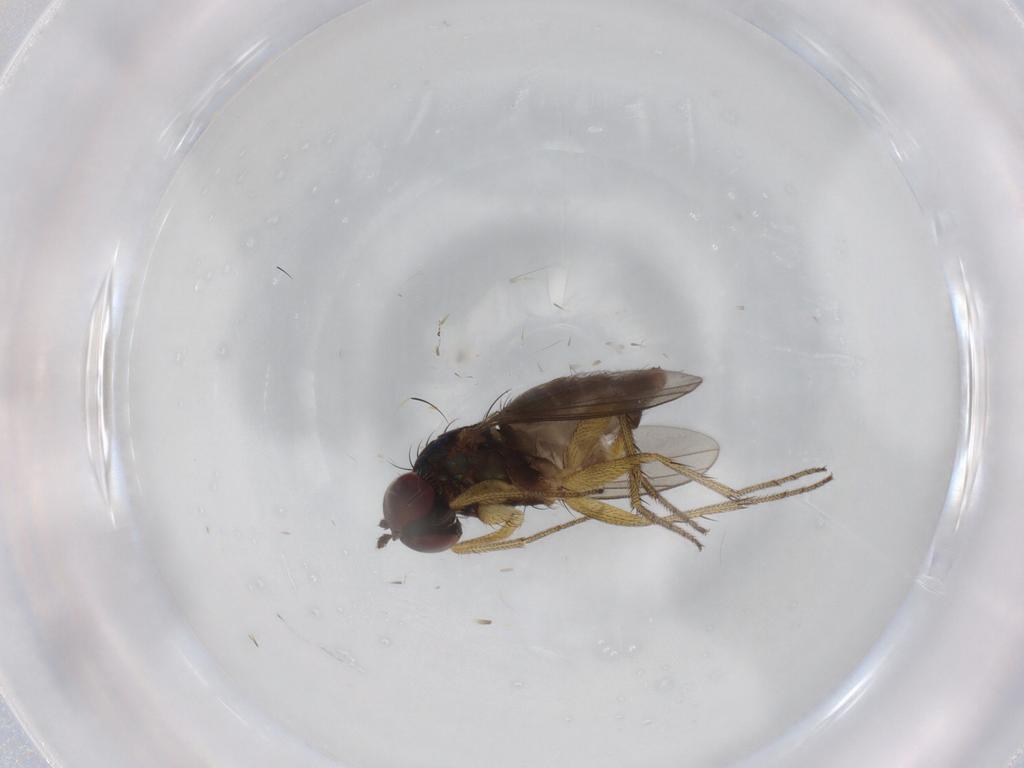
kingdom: Animalia
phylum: Arthropoda
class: Insecta
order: Diptera
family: Dolichopodidae
